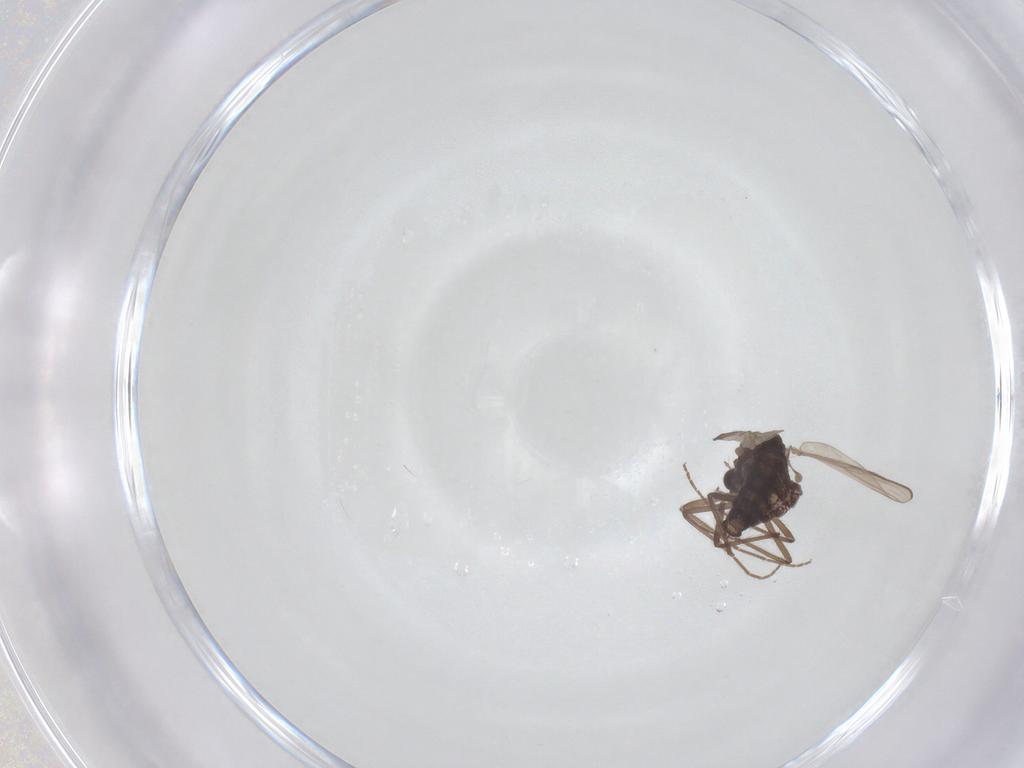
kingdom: Animalia
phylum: Arthropoda
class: Insecta
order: Diptera
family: Chironomidae
